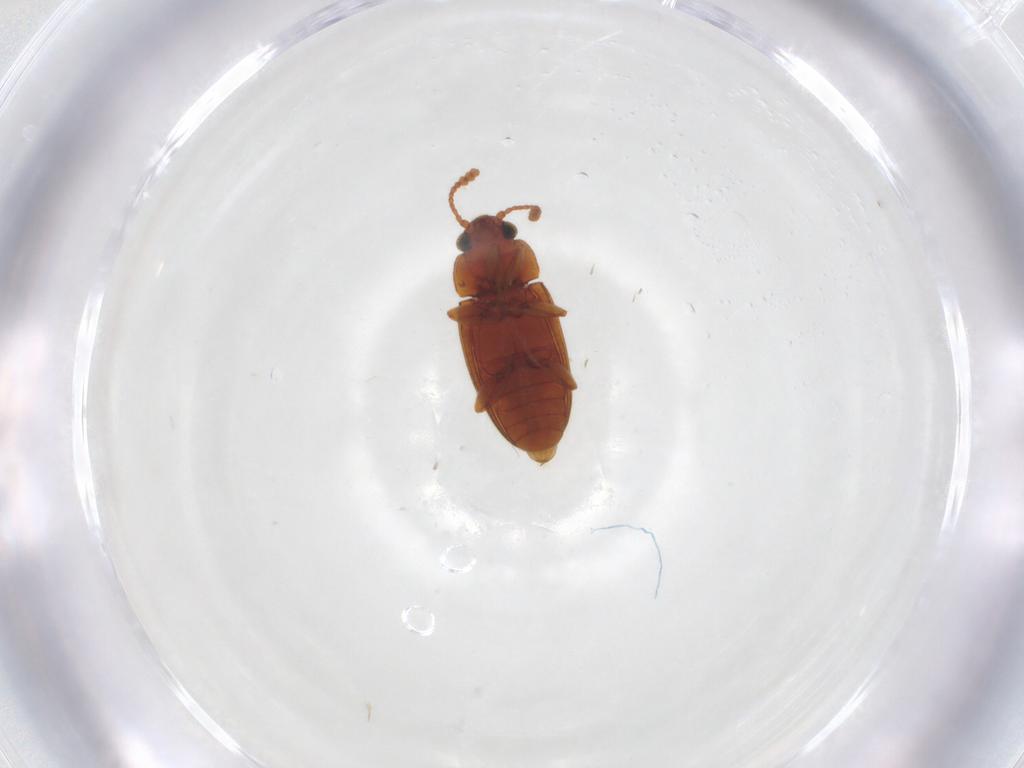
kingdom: Animalia
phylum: Arthropoda
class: Insecta
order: Coleoptera
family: Erotylidae
